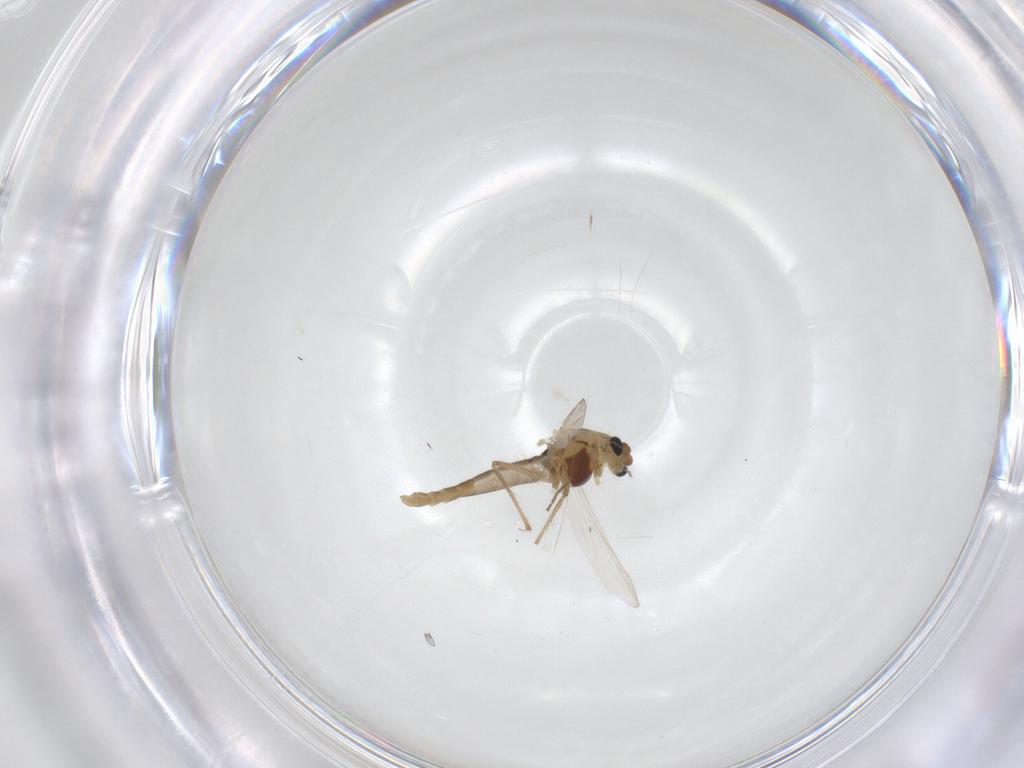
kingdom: Animalia
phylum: Arthropoda
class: Insecta
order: Diptera
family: Chironomidae
